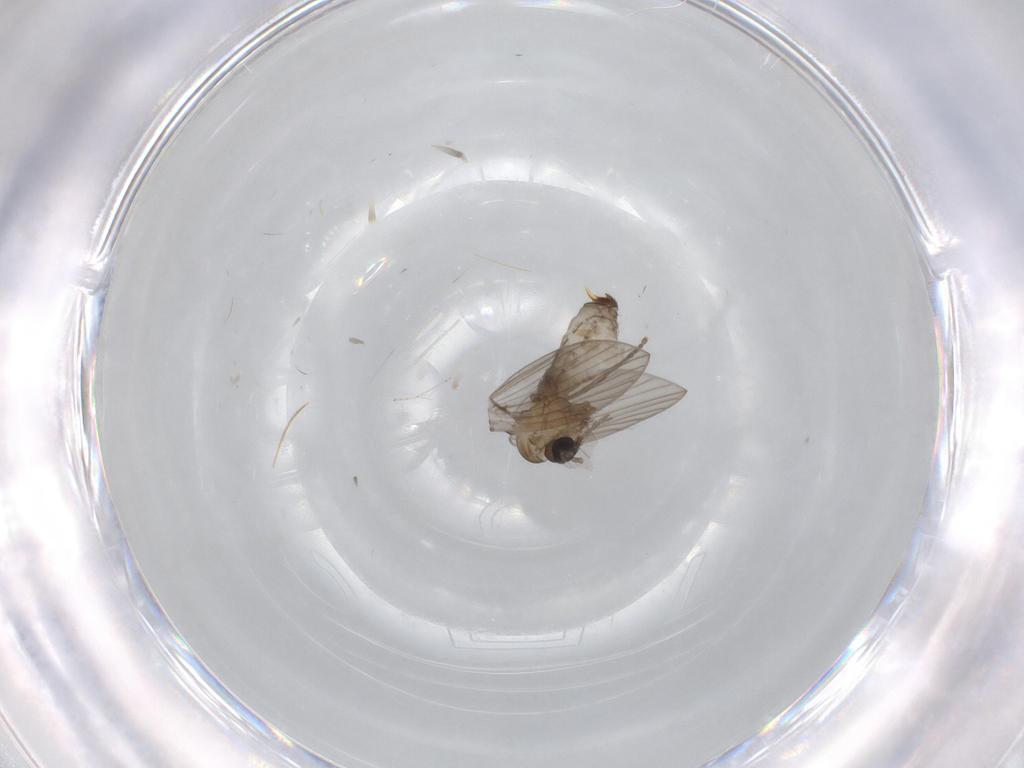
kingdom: Animalia
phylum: Arthropoda
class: Insecta
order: Diptera
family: Psychodidae
